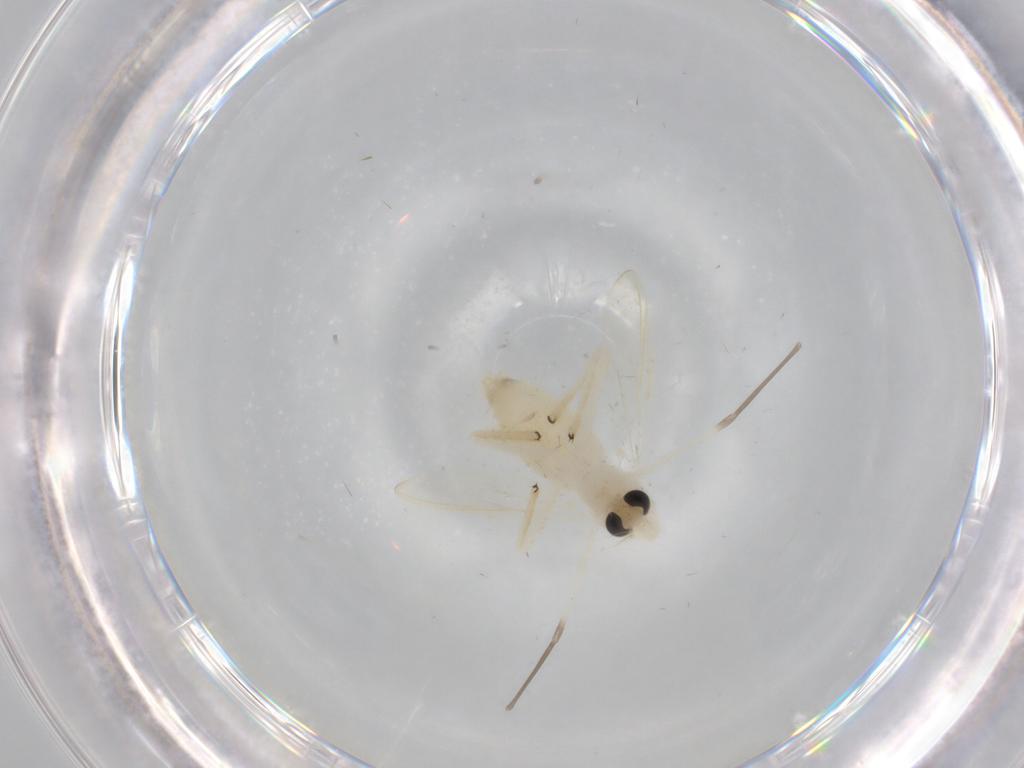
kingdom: Animalia
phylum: Arthropoda
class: Insecta
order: Diptera
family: Chironomidae
